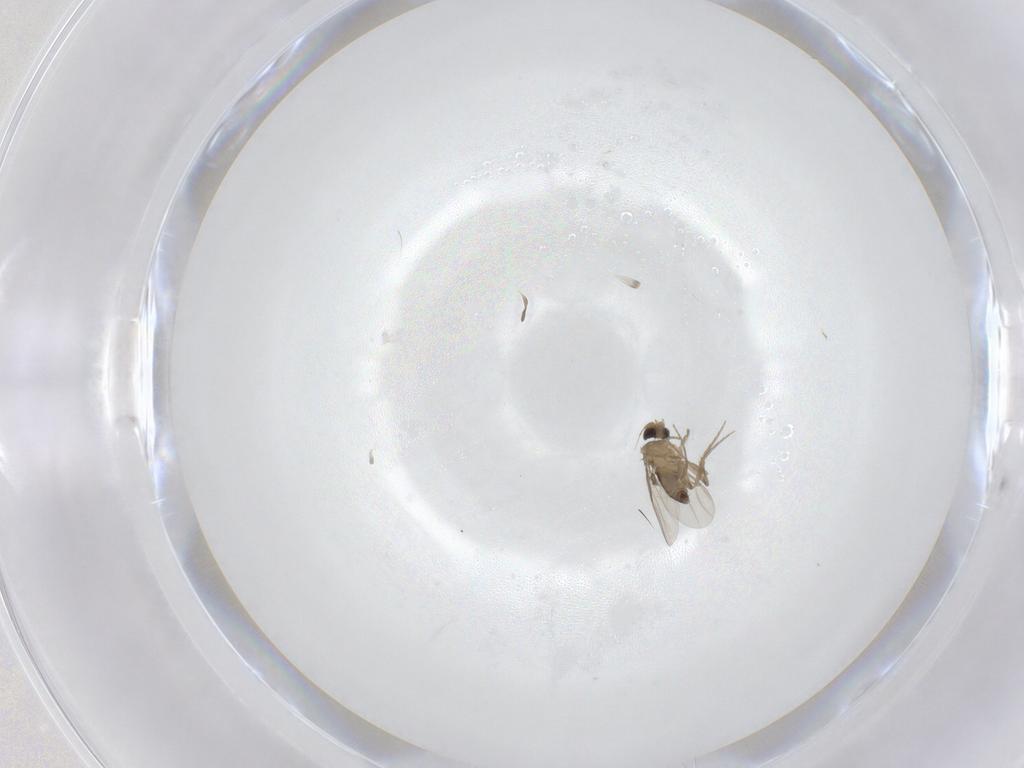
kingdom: Animalia
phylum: Arthropoda
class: Insecta
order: Diptera
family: Phoridae
